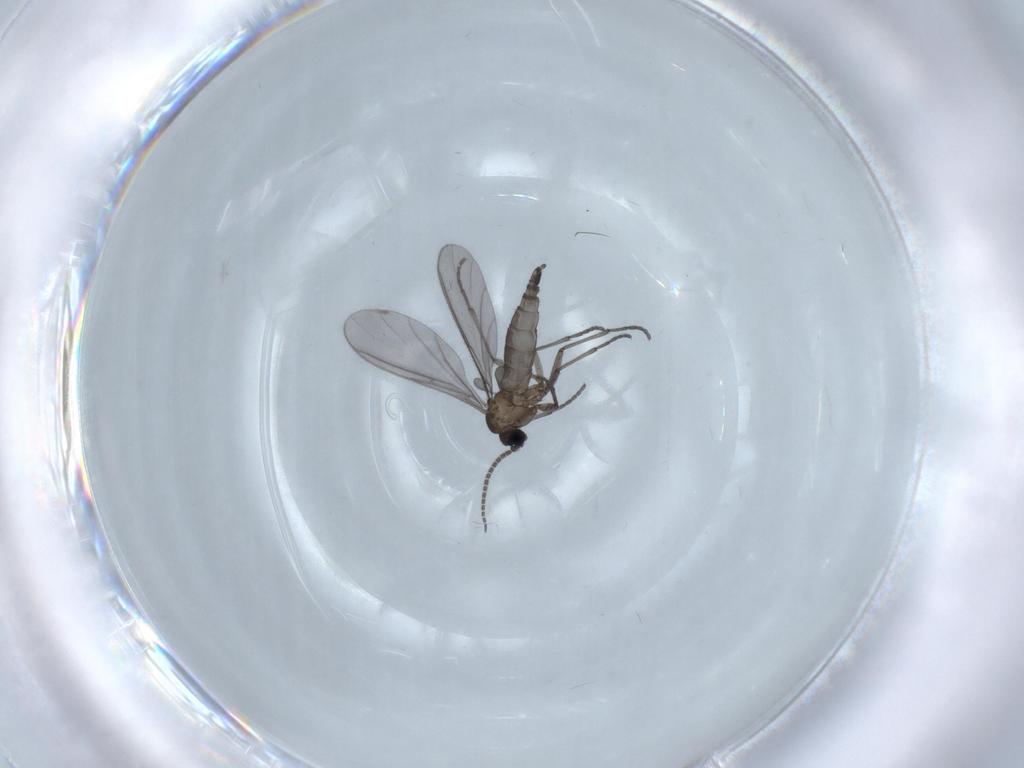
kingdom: Animalia
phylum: Arthropoda
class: Insecta
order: Diptera
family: Sciaridae
